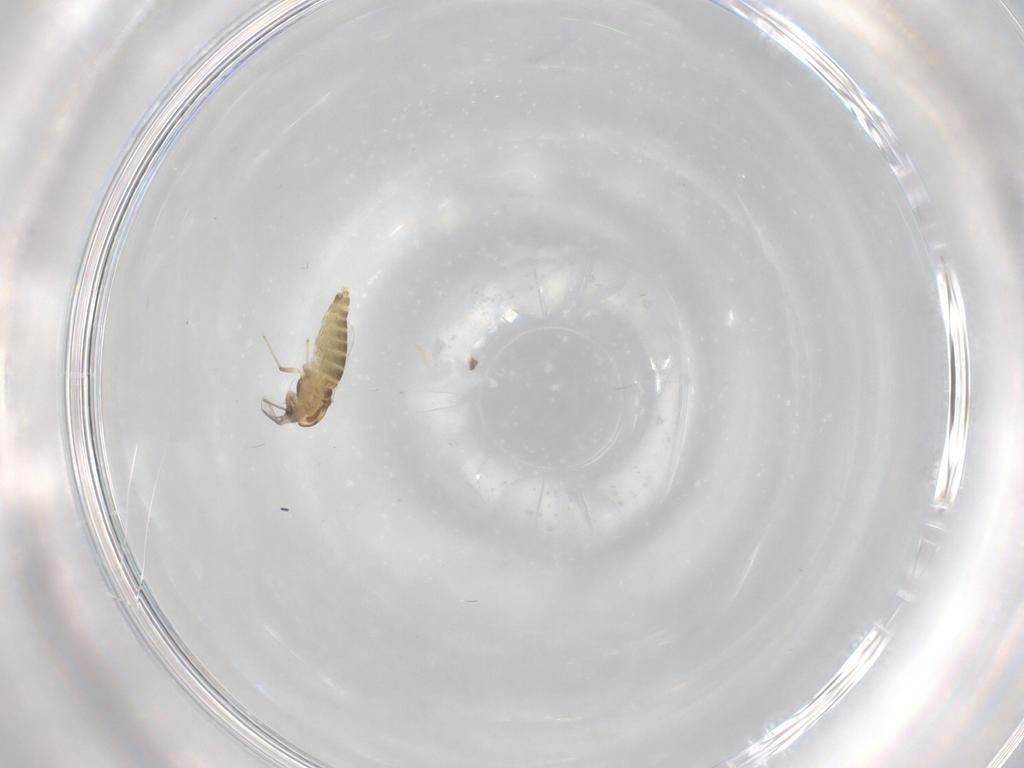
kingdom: Animalia
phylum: Arthropoda
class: Insecta
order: Diptera
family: Chironomidae
